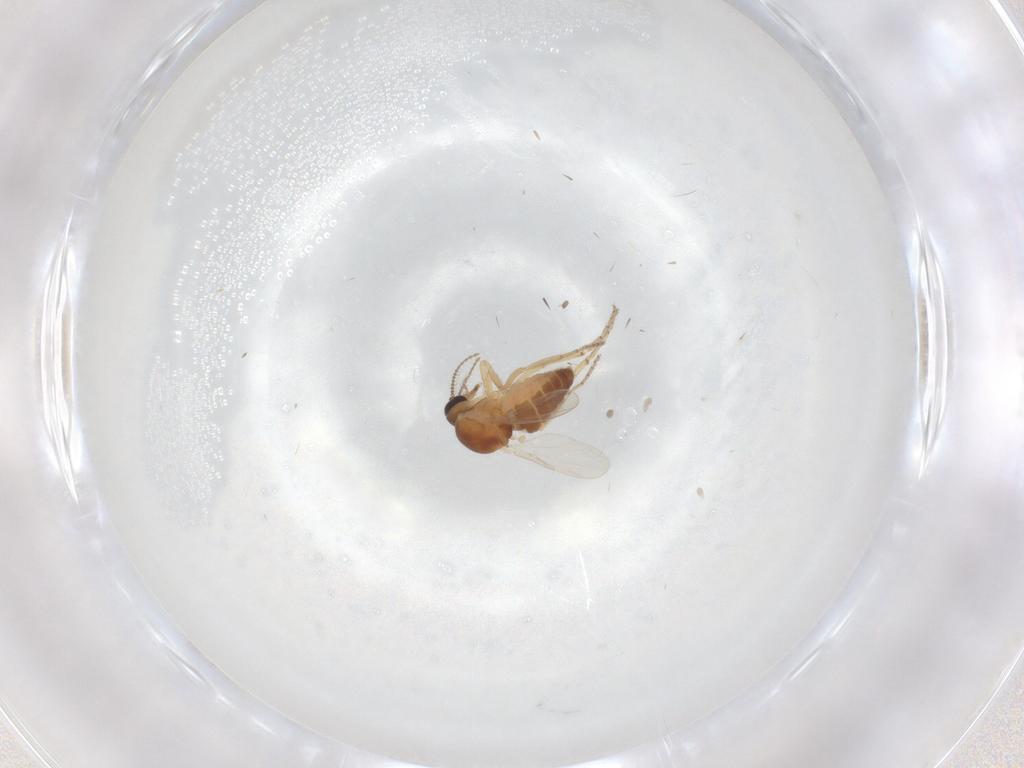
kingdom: Animalia
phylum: Arthropoda
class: Insecta
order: Diptera
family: Ceratopogonidae
